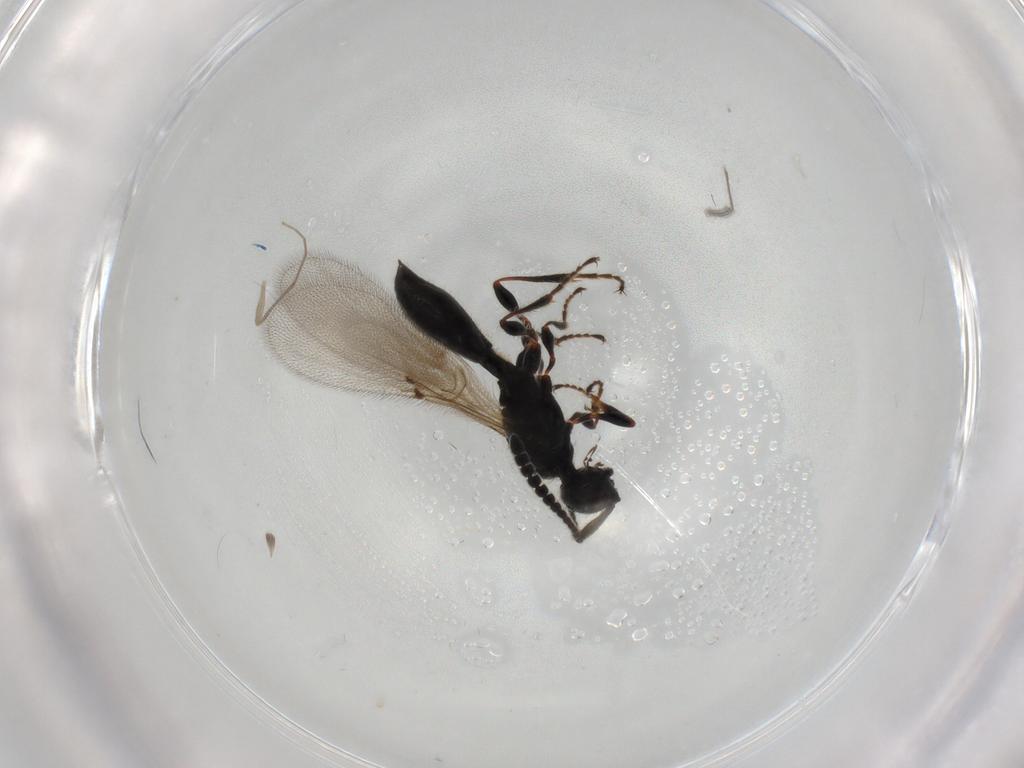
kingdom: Animalia
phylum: Arthropoda
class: Insecta
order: Hymenoptera
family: Diapriidae
